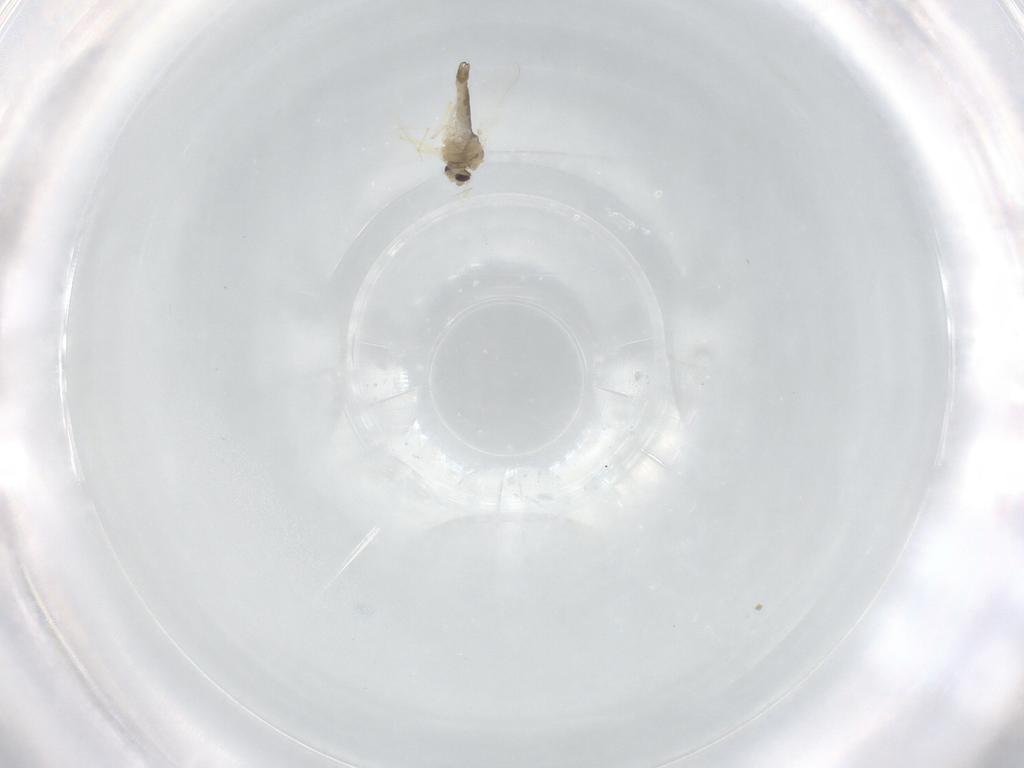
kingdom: Animalia
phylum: Arthropoda
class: Insecta
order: Diptera
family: Chironomidae
